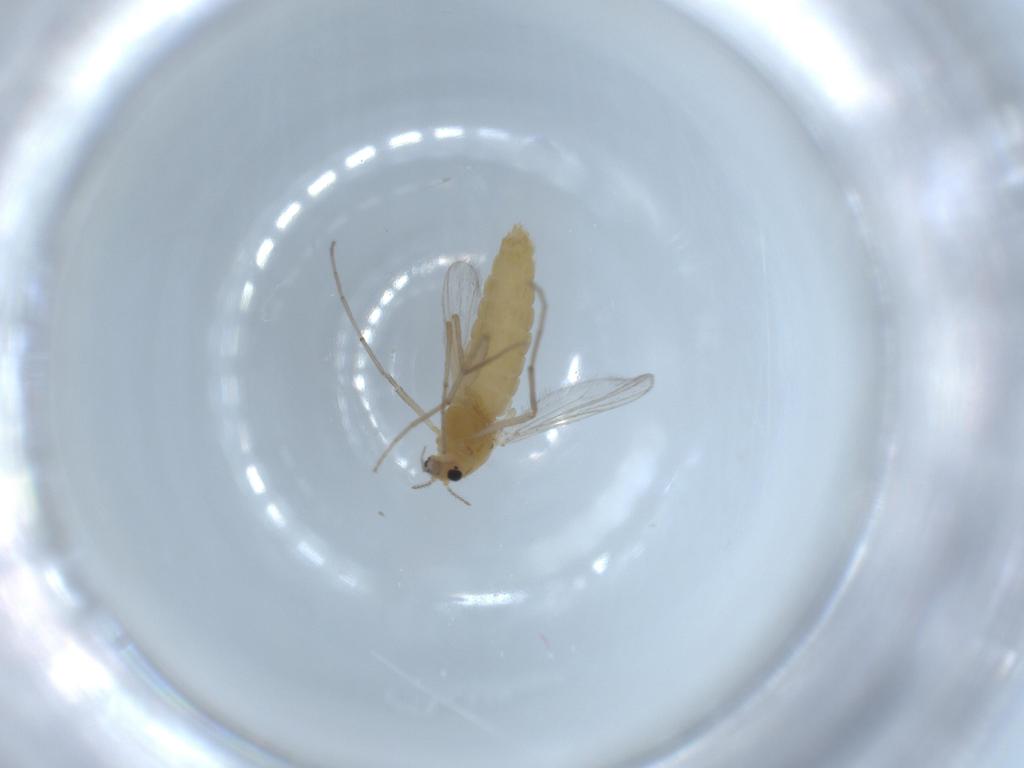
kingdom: Animalia
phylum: Arthropoda
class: Insecta
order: Diptera
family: Chironomidae
